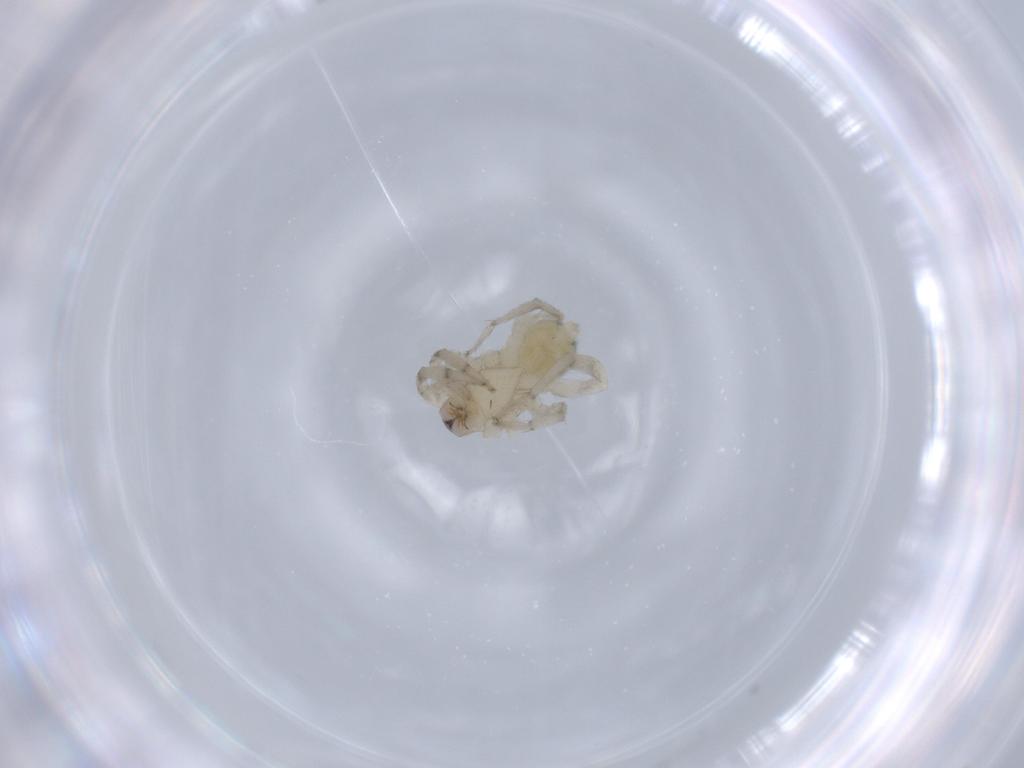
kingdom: Animalia
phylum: Arthropoda
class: Arachnida
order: Araneae
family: Gnaphosidae
